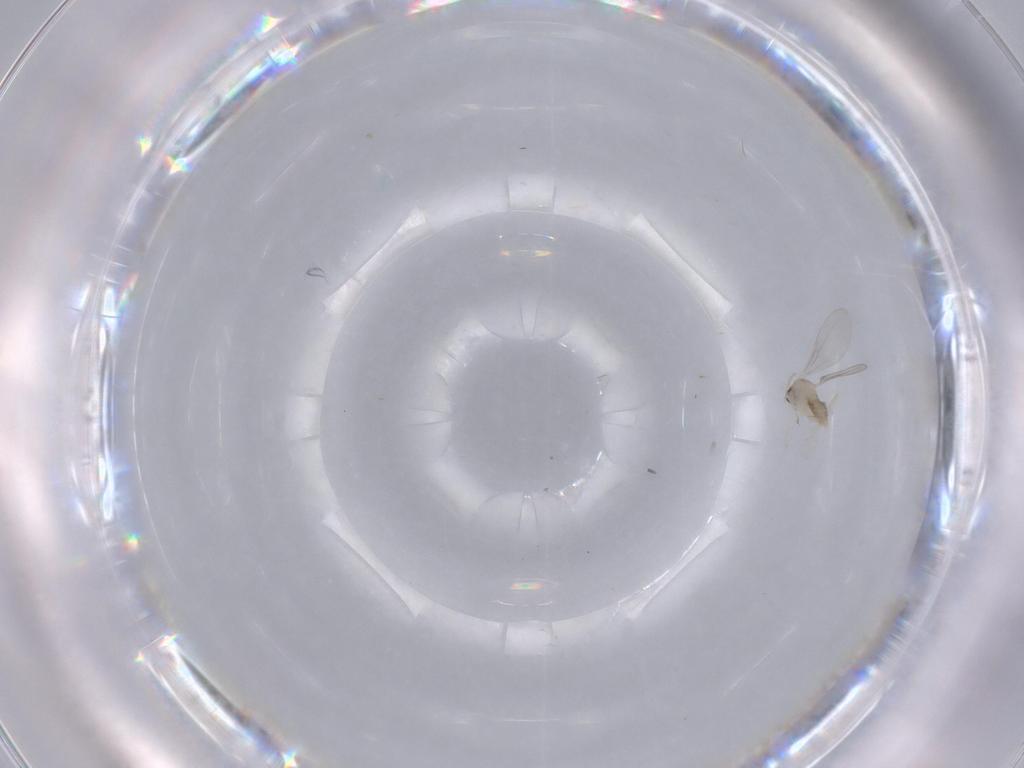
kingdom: Animalia
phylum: Arthropoda
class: Insecta
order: Diptera
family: Cecidomyiidae
